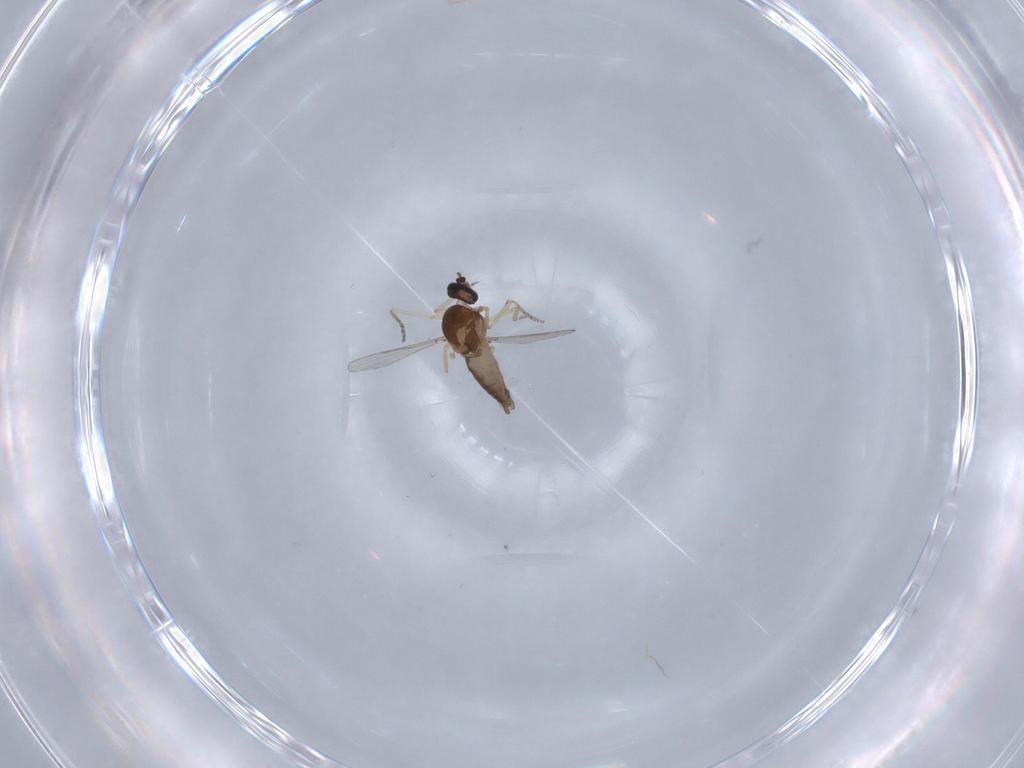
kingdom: Animalia
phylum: Arthropoda
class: Insecta
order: Diptera
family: Ceratopogonidae
